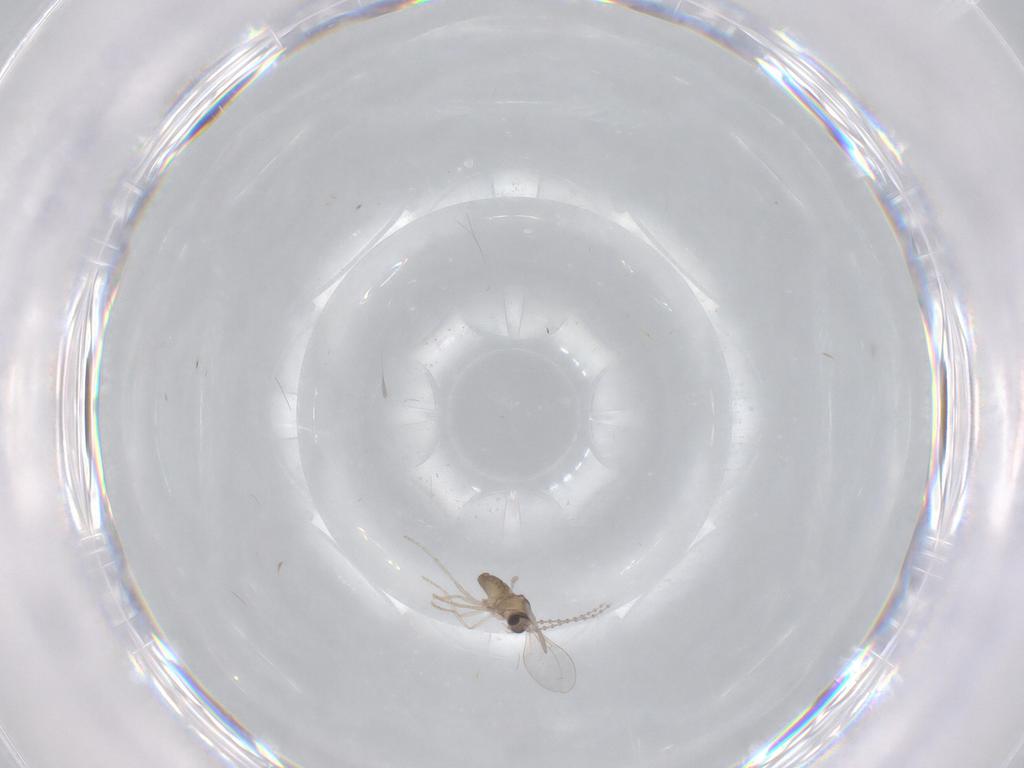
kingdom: Animalia
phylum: Arthropoda
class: Insecta
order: Diptera
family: Cecidomyiidae
